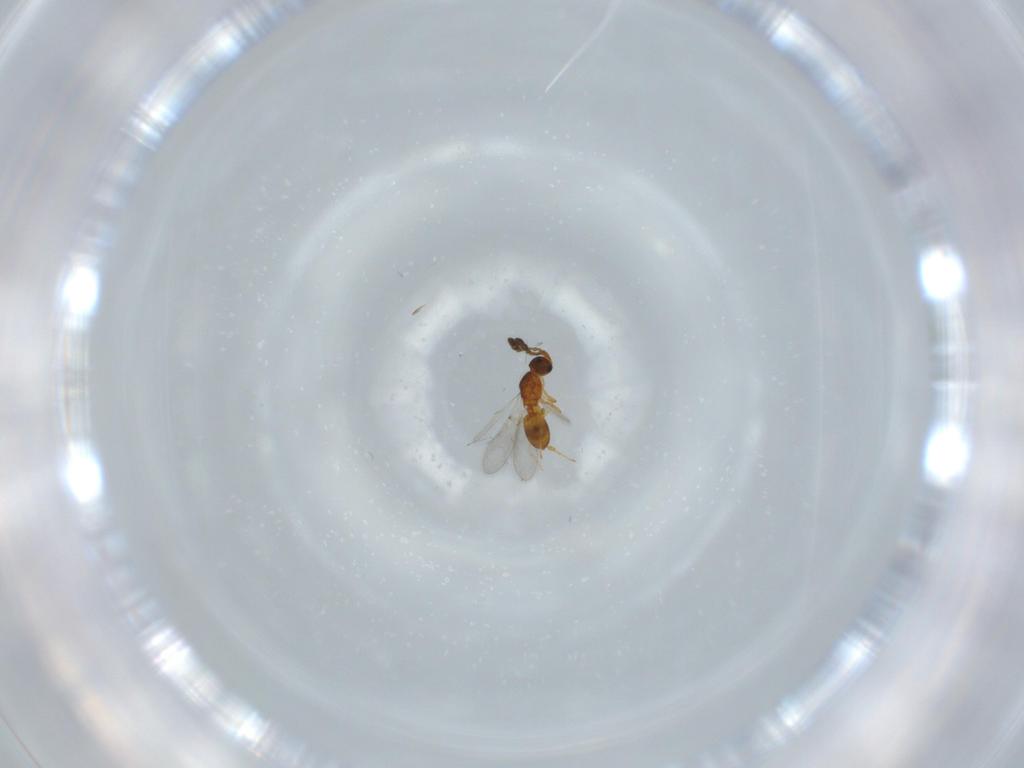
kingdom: Animalia
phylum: Arthropoda
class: Insecta
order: Hymenoptera
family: Diapriidae
